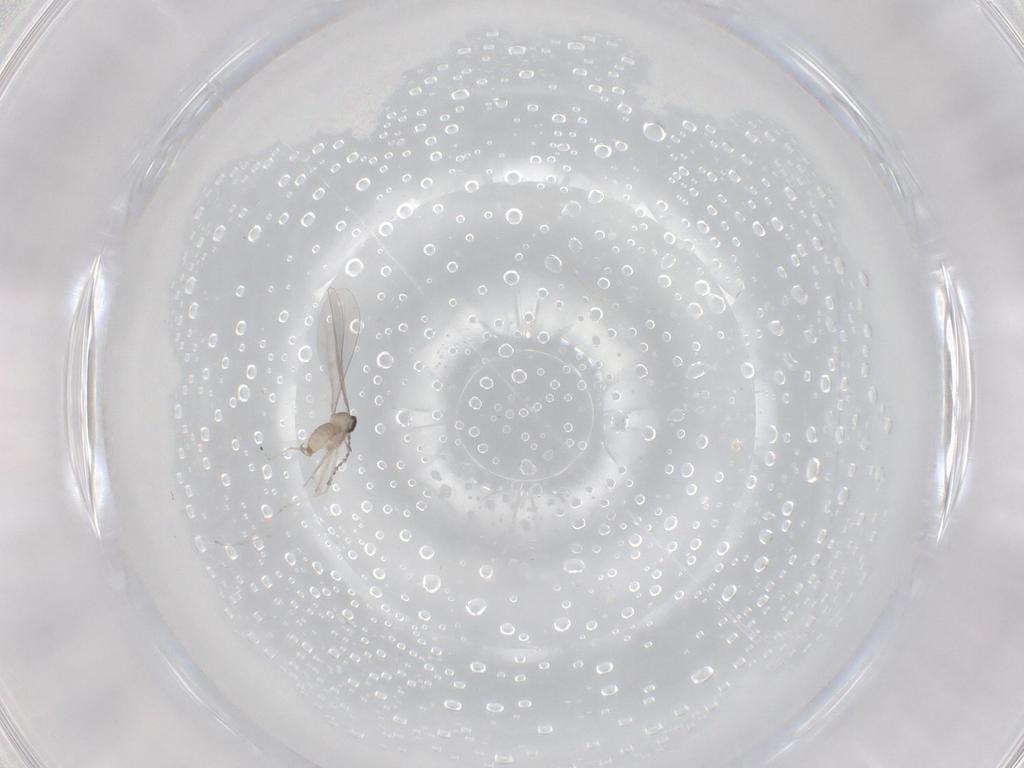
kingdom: Animalia
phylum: Arthropoda
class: Insecta
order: Diptera
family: Cecidomyiidae
